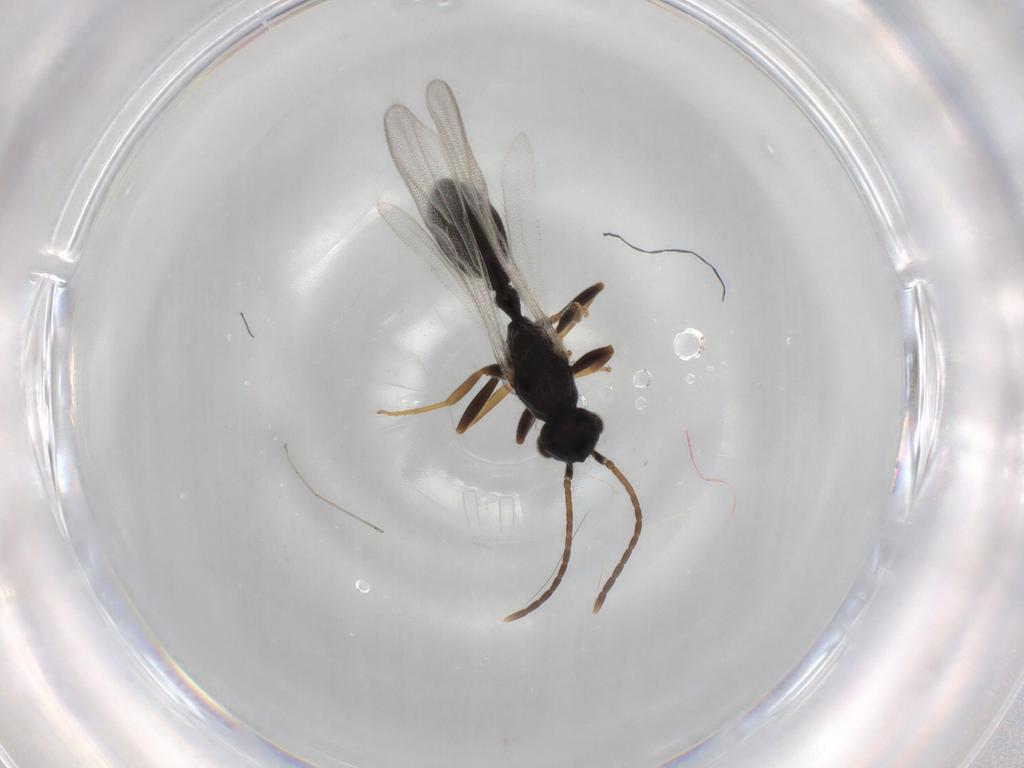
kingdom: Animalia
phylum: Arthropoda
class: Insecta
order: Hymenoptera
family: Formicidae
